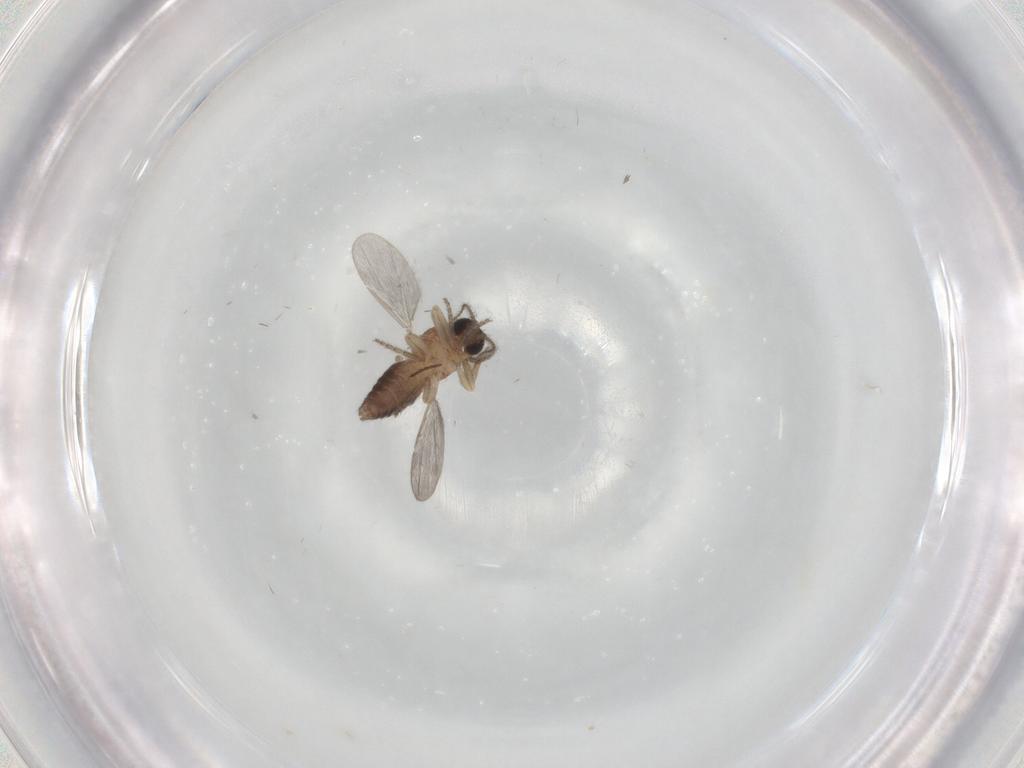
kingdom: Animalia
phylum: Arthropoda
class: Insecta
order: Diptera
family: Ceratopogonidae
